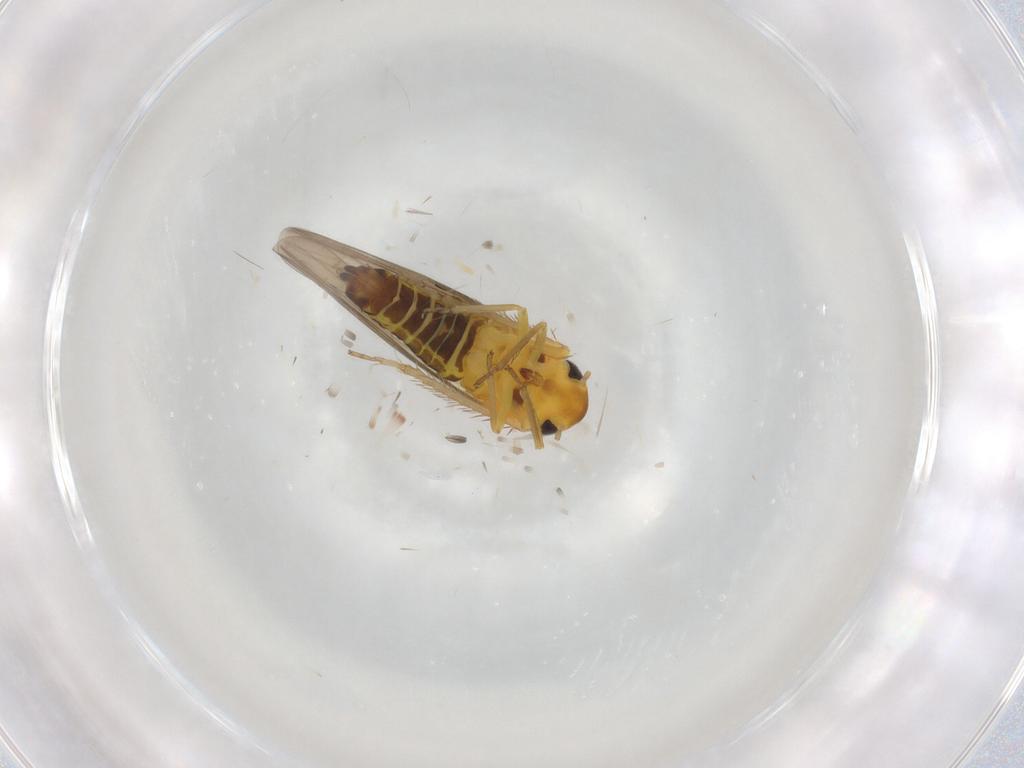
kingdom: Animalia
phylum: Arthropoda
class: Insecta
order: Hemiptera
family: Cicadellidae
